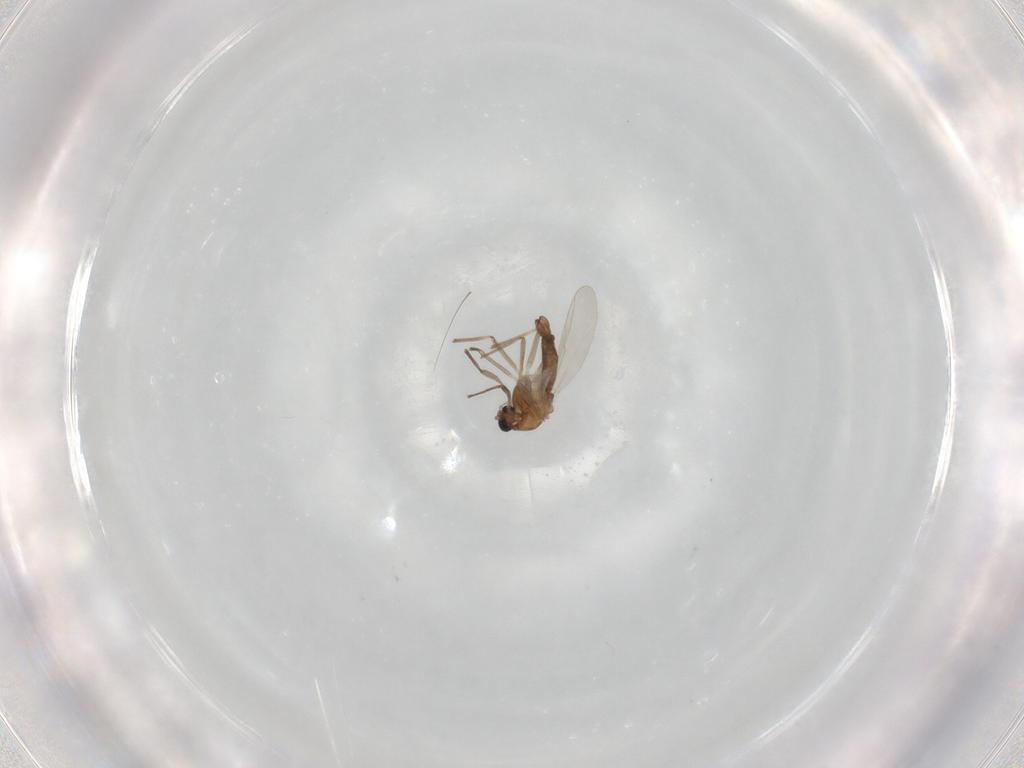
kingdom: Animalia
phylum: Arthropoda
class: Insecta
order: Diptera
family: Chironomidae
